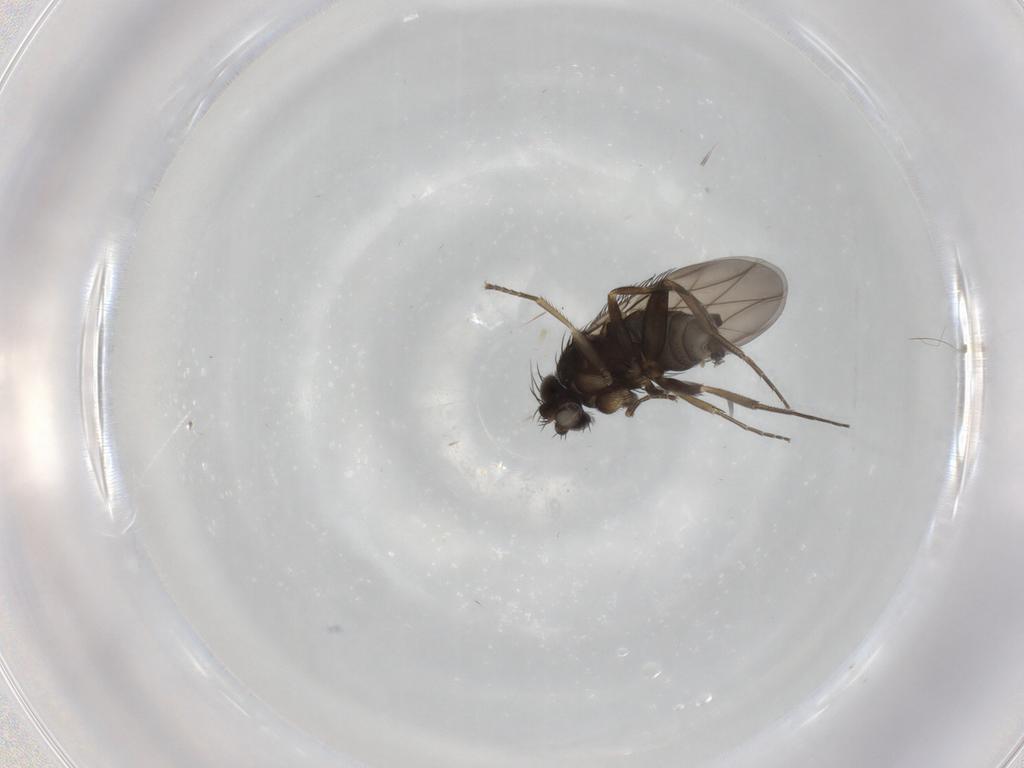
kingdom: Animalia
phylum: Arthropoda
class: Insecta
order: Diptera
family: Phoridae
